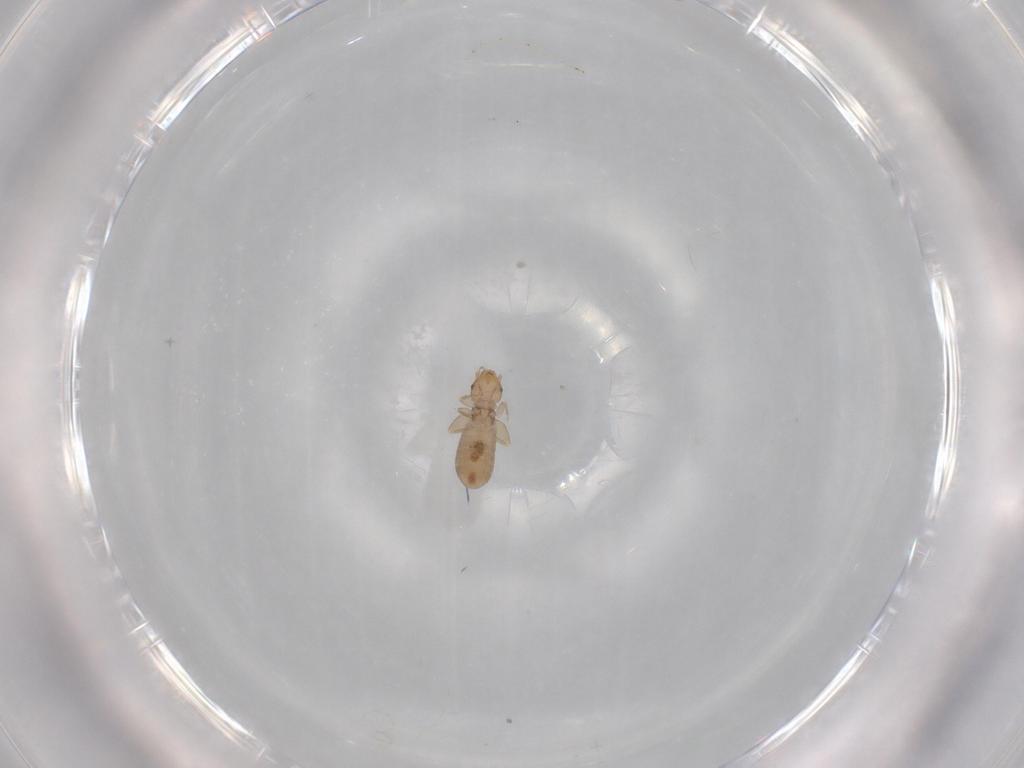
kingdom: Animalia
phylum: Arthropoda
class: Insecta
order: Psocodea
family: Liposcelididae
